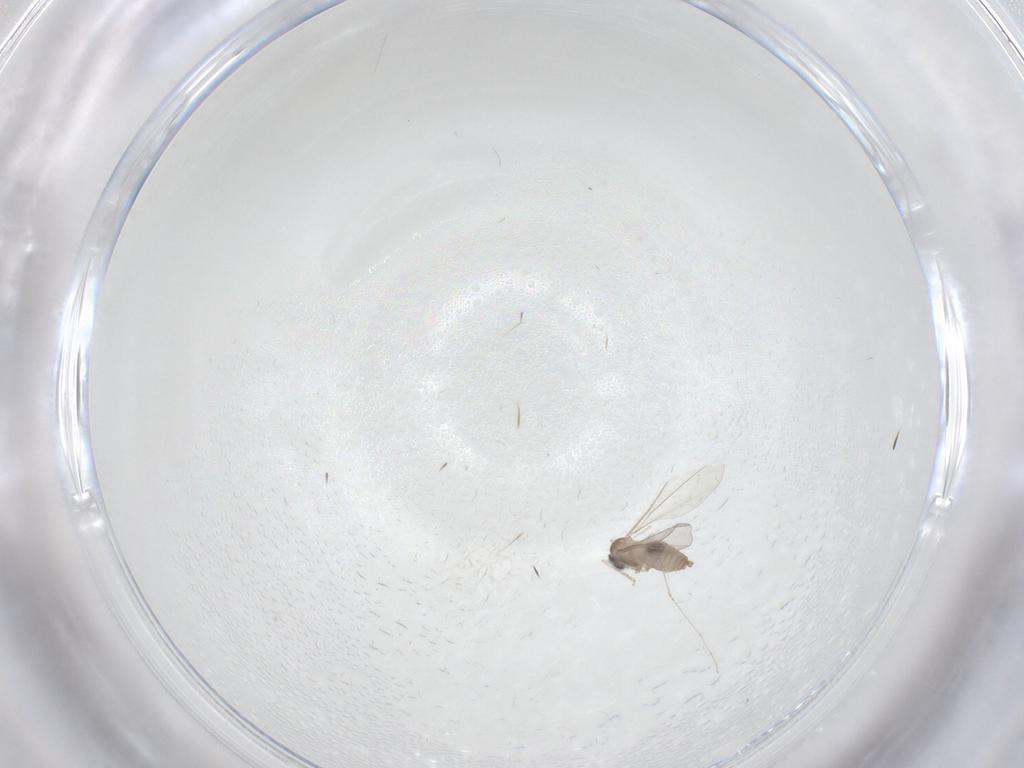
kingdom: Animalia
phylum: Arthropoda
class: Insecta
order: Diptera
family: Cecidomyiidae
